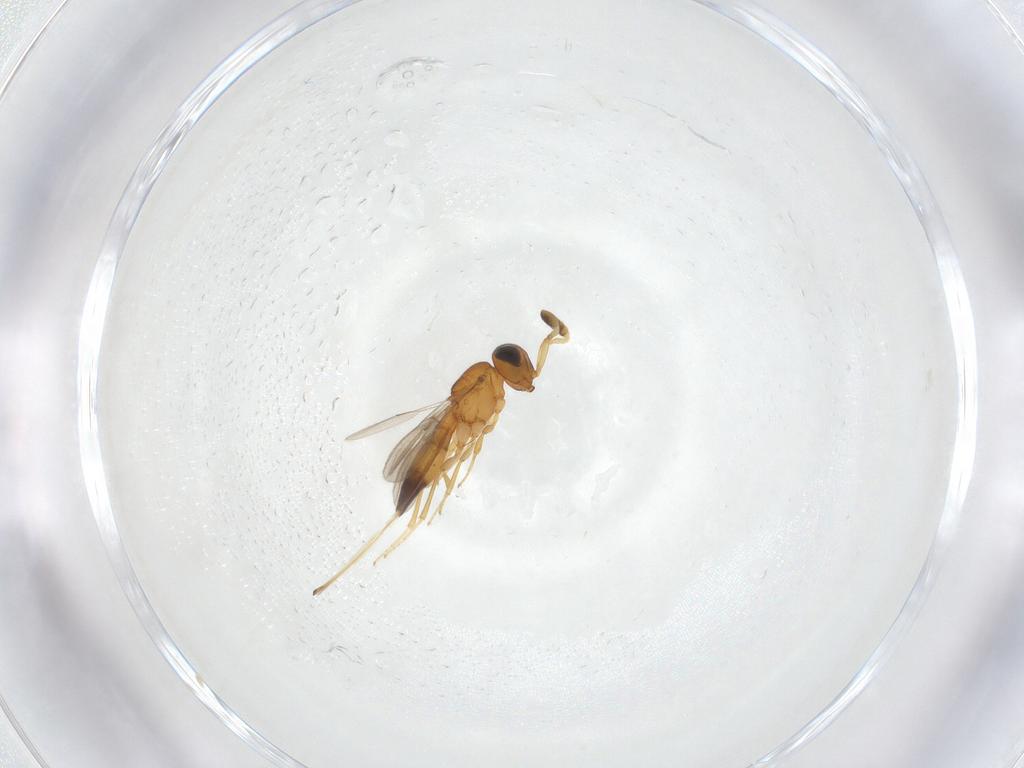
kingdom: Animalia
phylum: Arthropoda
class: Insecta
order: Hymenoptera
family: Scelionidae
